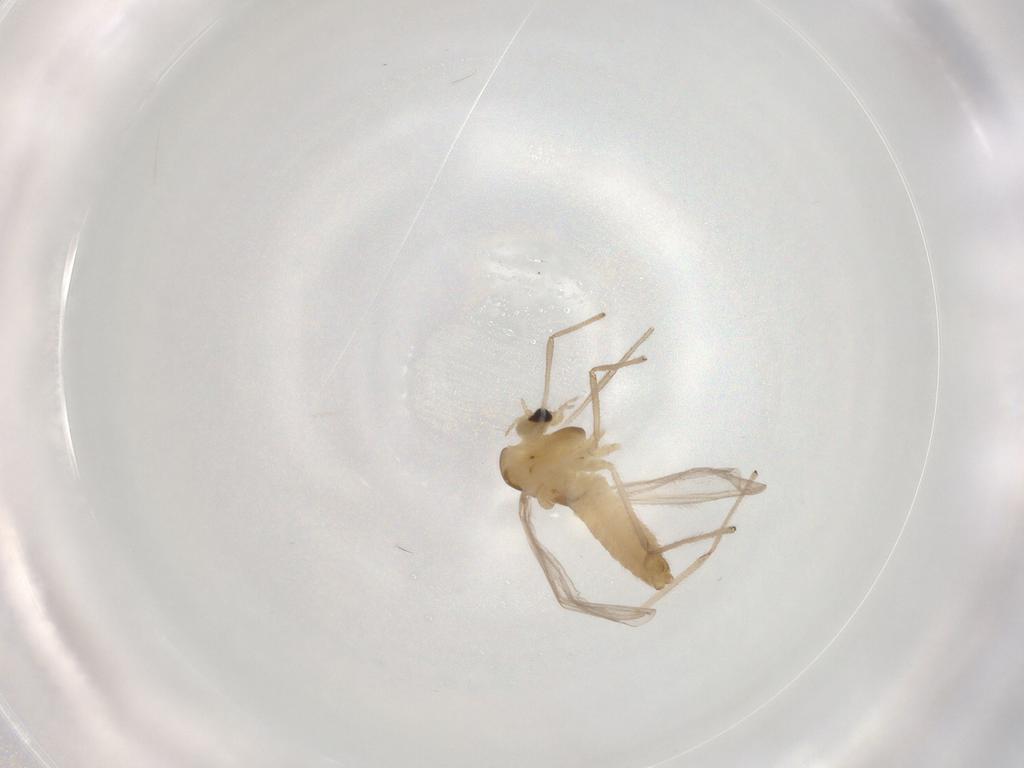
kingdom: Animalia
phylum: Arthropoda
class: Insecta
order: Diptera
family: Chironomidae
